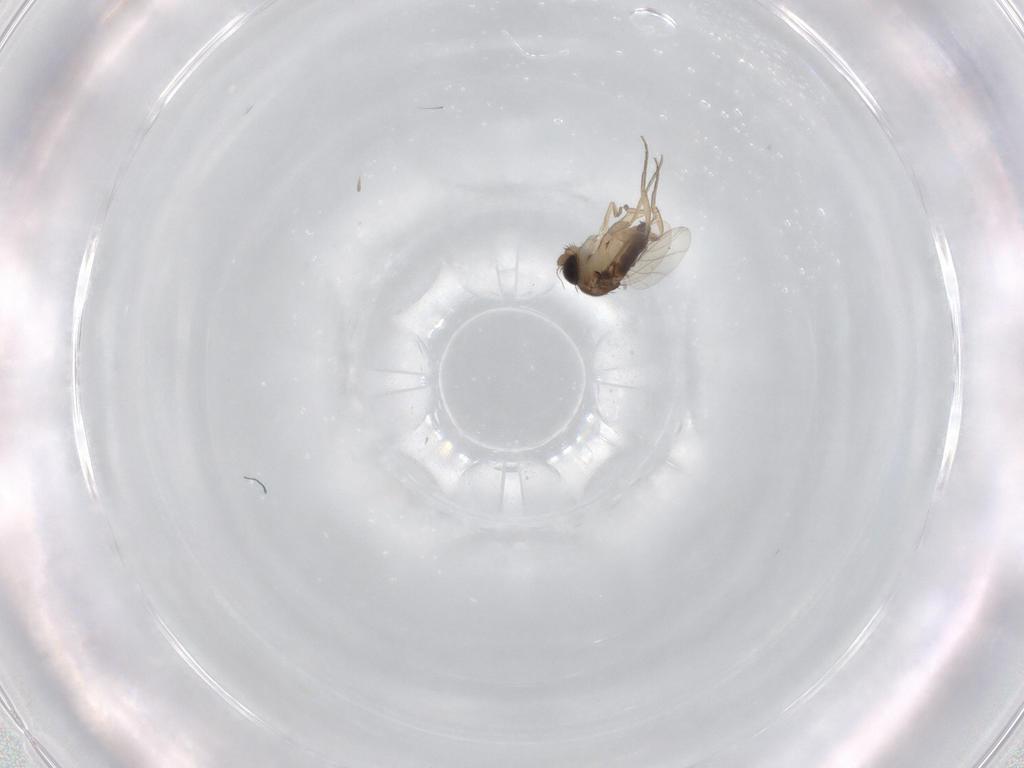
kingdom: Animalia
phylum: Arthropoda
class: Insecta
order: Diptera
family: Phoridae
